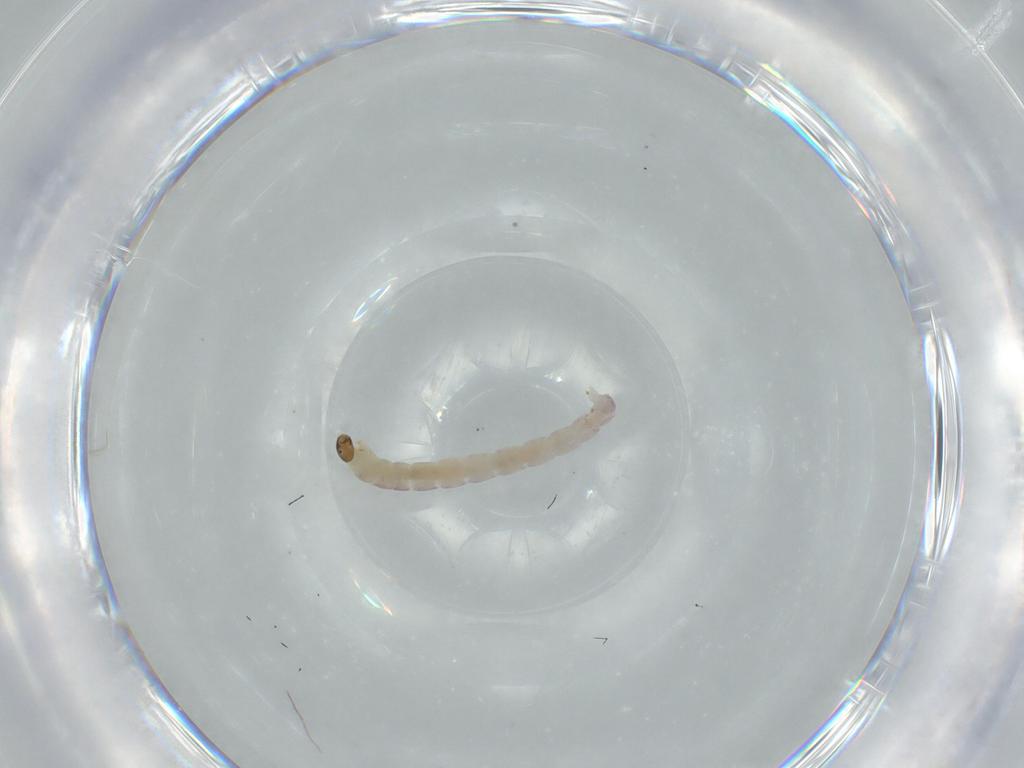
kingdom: Animalia
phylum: Arthropoda
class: Insecta
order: Diptera
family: Chironomidae
